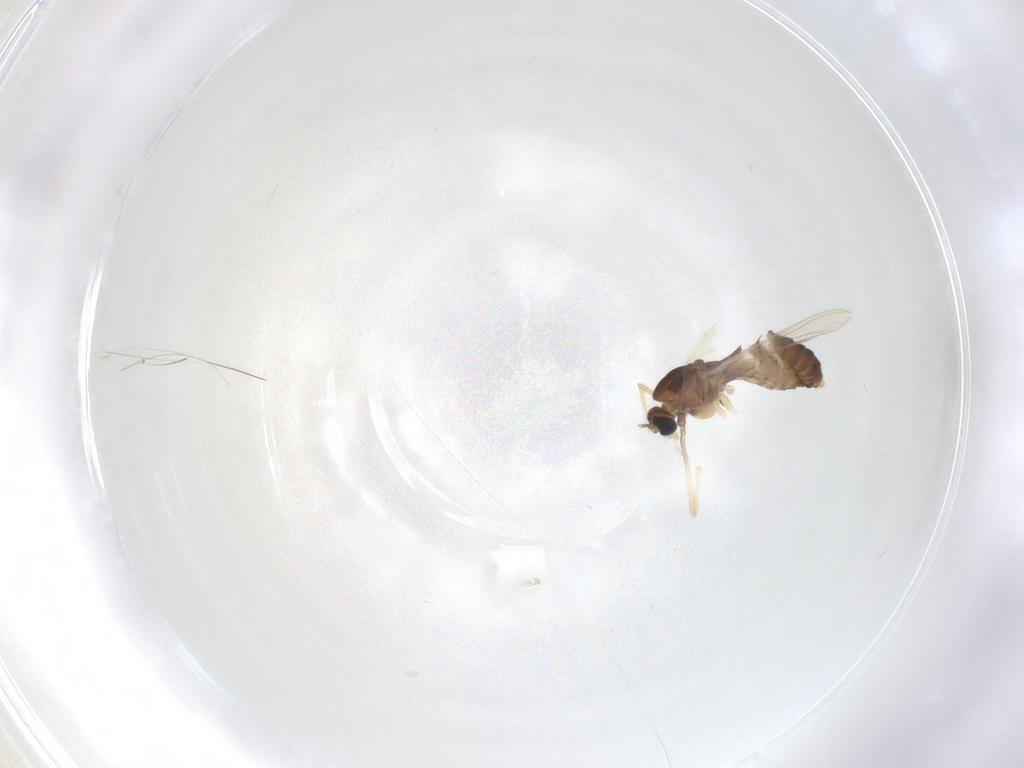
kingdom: Animalia
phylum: Arthropoda
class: Insecta
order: Diptera
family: Chironomidae
